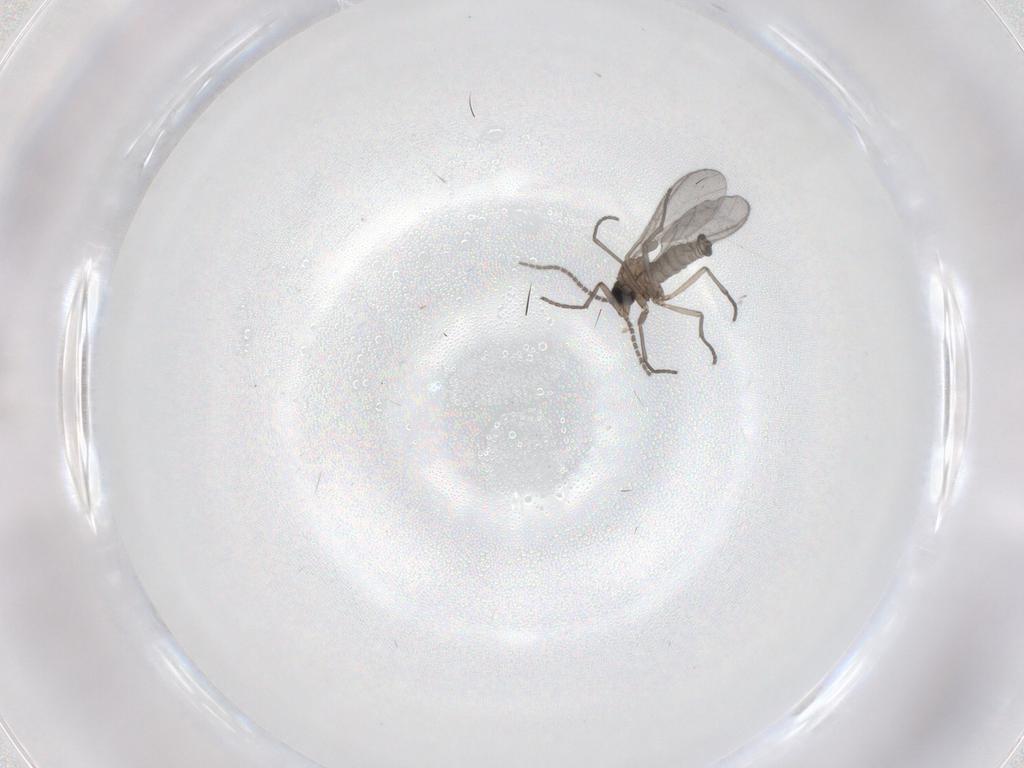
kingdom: Animalia
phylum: Arthropoda
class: Insecta
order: Diptera
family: Sciaridae
